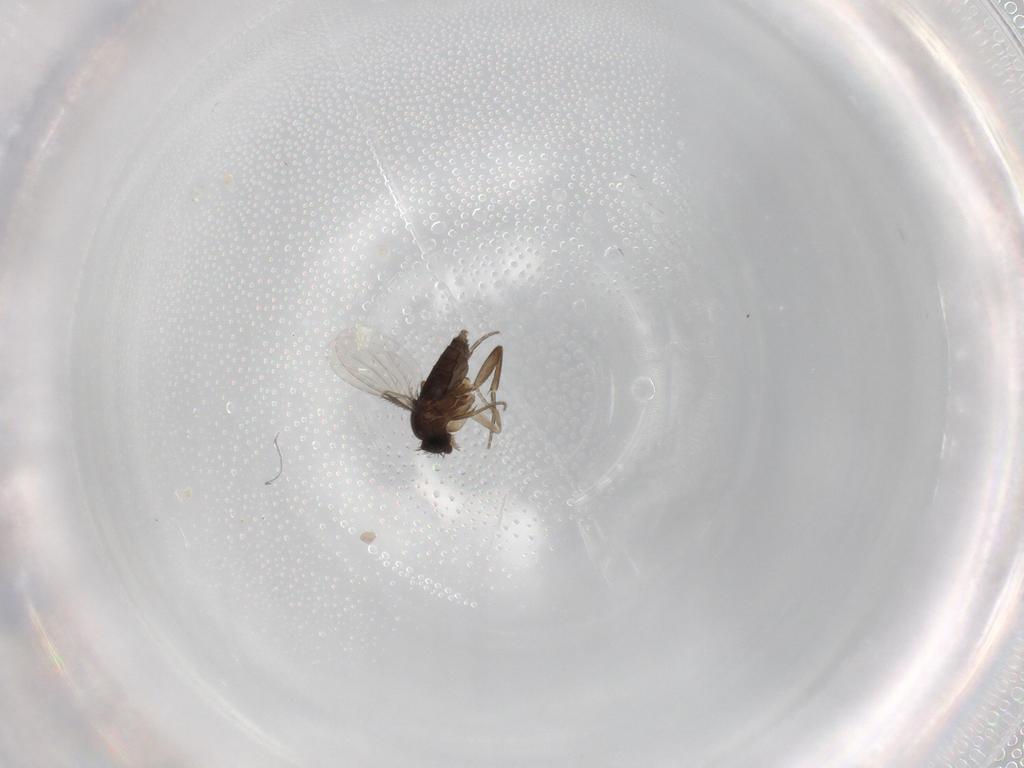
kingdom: Animalia
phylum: Arthropoda
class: Insecta
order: Diptera
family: Phoridae
